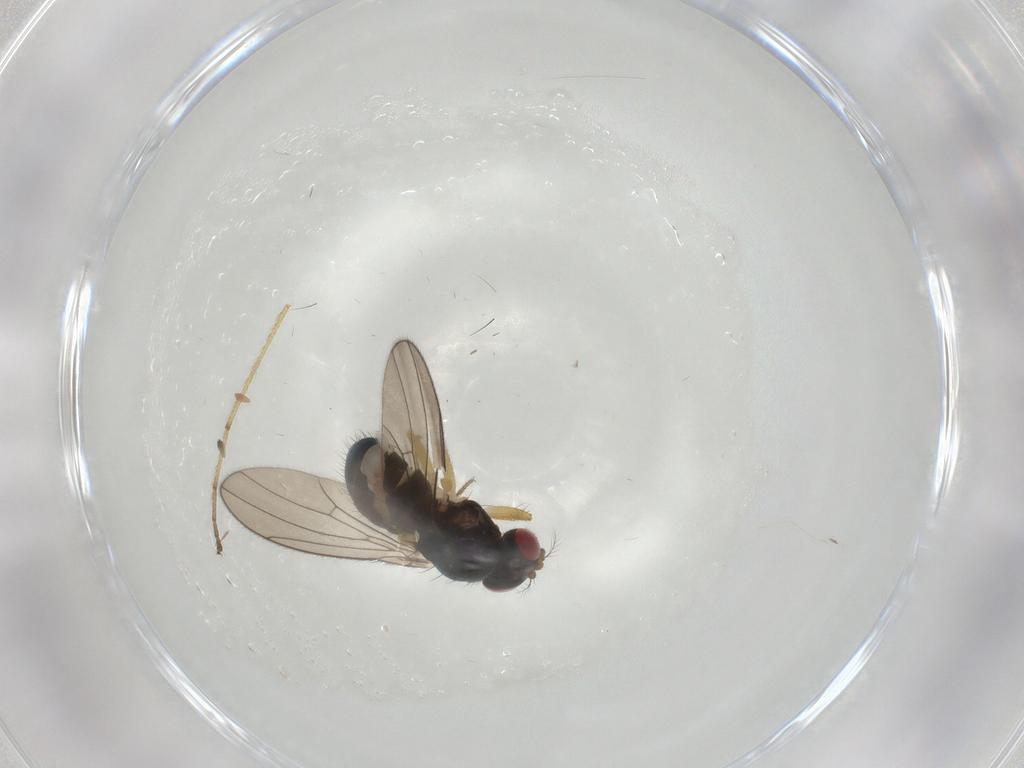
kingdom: Animalia
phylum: Arthropoda
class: Insecta
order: Diptera
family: Drosophilidae
